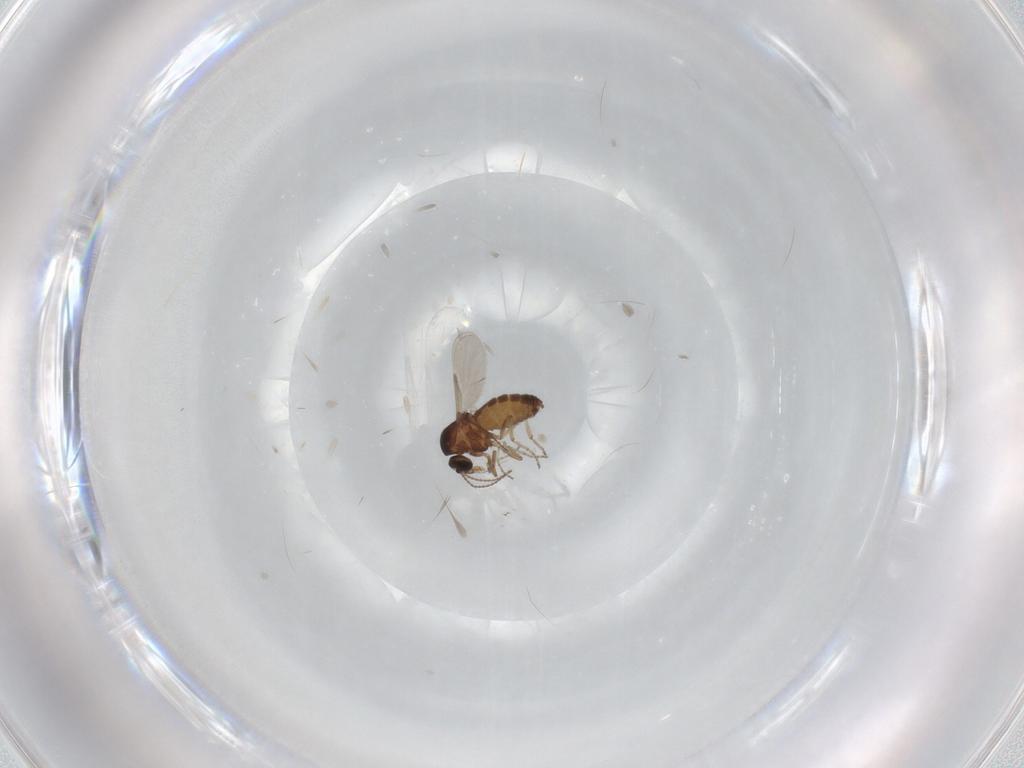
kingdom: Animalia
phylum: Arthropoda
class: Insecta
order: Diptera
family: Ceratopogonidae
